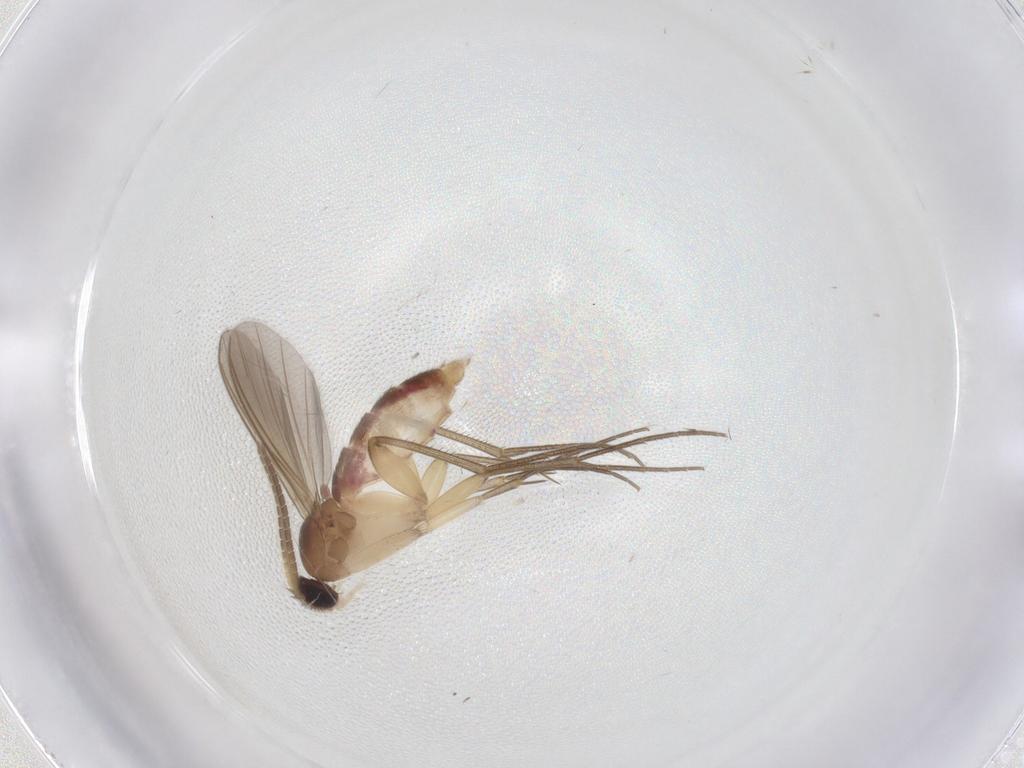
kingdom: Animalia
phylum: Arthropoda
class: Insecta
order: Diptera
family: Mycetophilidae
